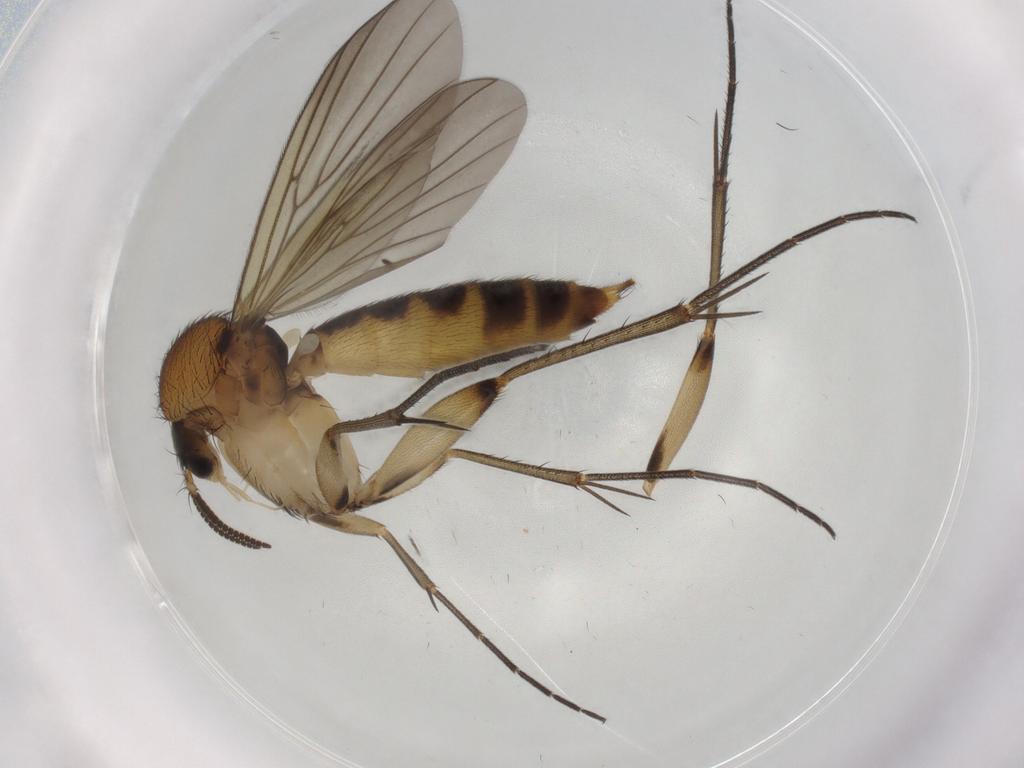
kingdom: Animalia
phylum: Arthropoda
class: Insecta
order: Diptera
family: Mycetophilidae
